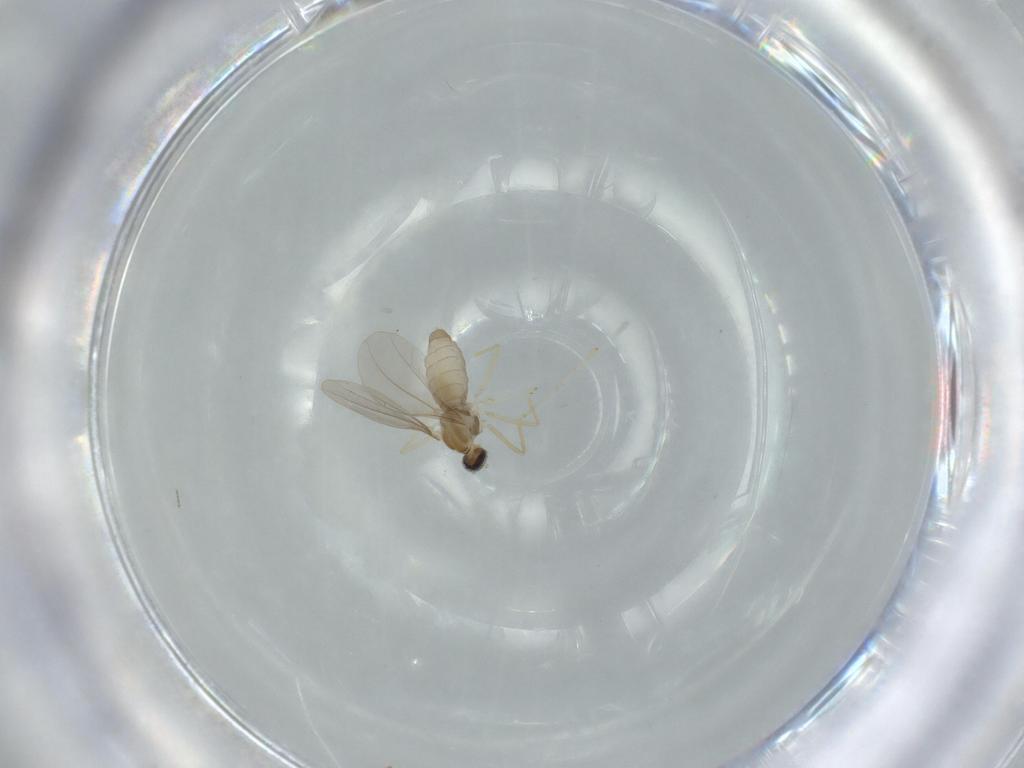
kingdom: Animalia
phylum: Arthropoda
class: Insecta
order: Diptera
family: Cecidomyiidae
